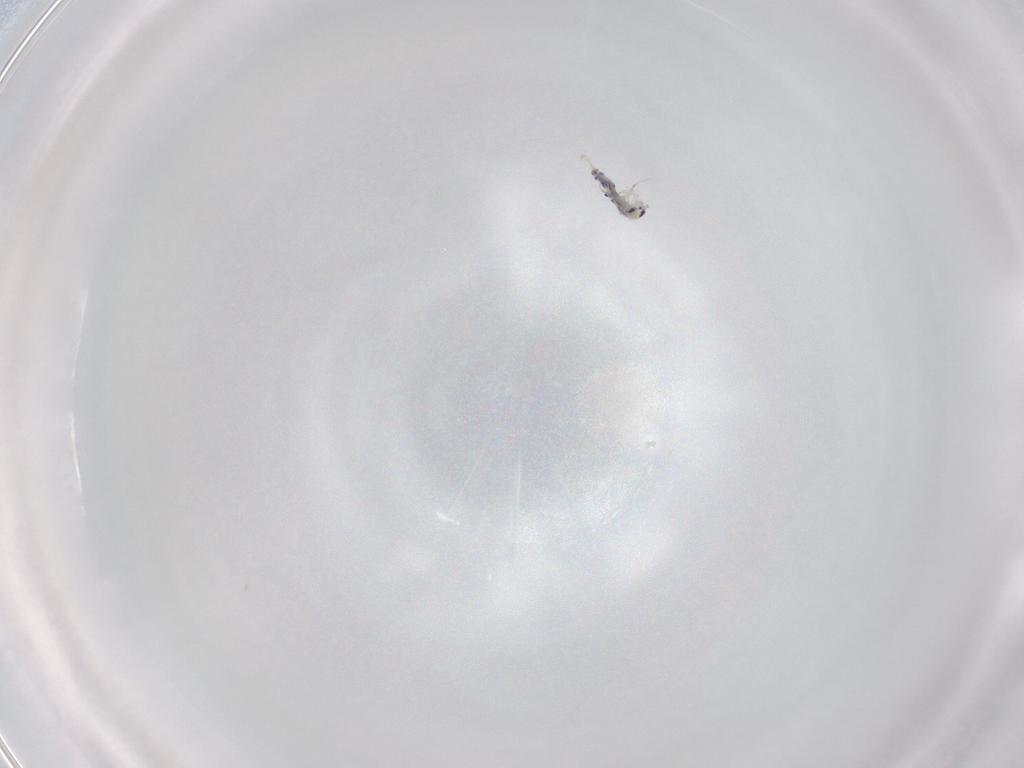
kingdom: Animalia
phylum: Arthropoda
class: Collembola
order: Entomobryomorpha
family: Entomobryidae
